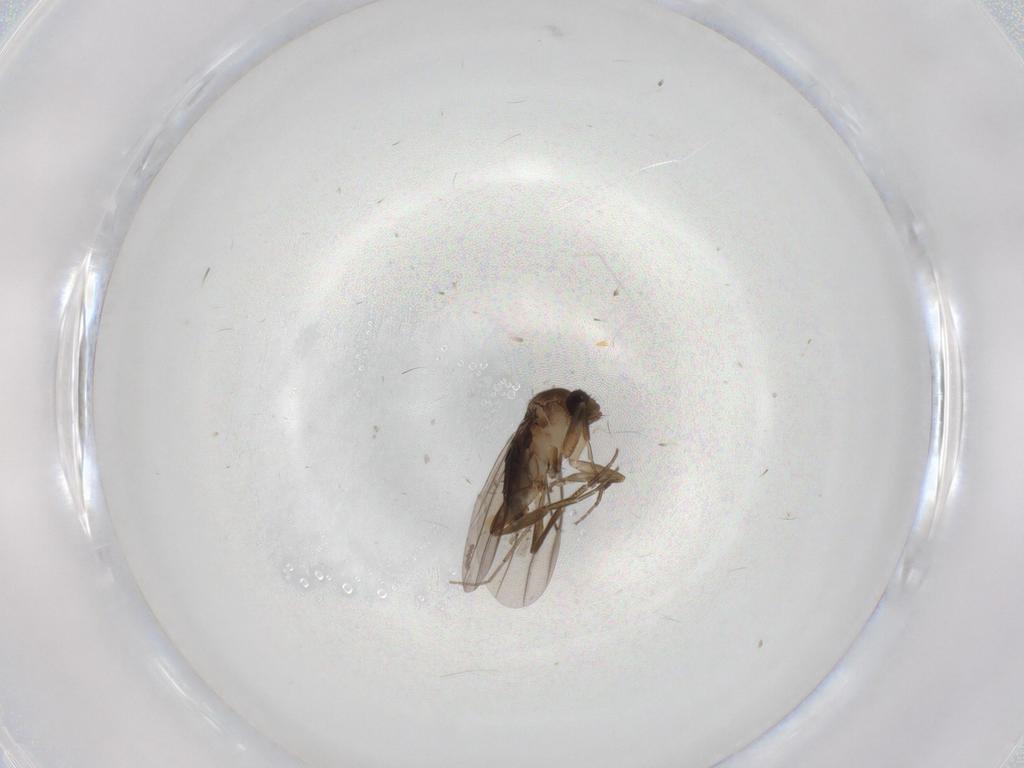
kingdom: Animalia
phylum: Arthropoda
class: Insecta
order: Diptera
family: Phoridae
